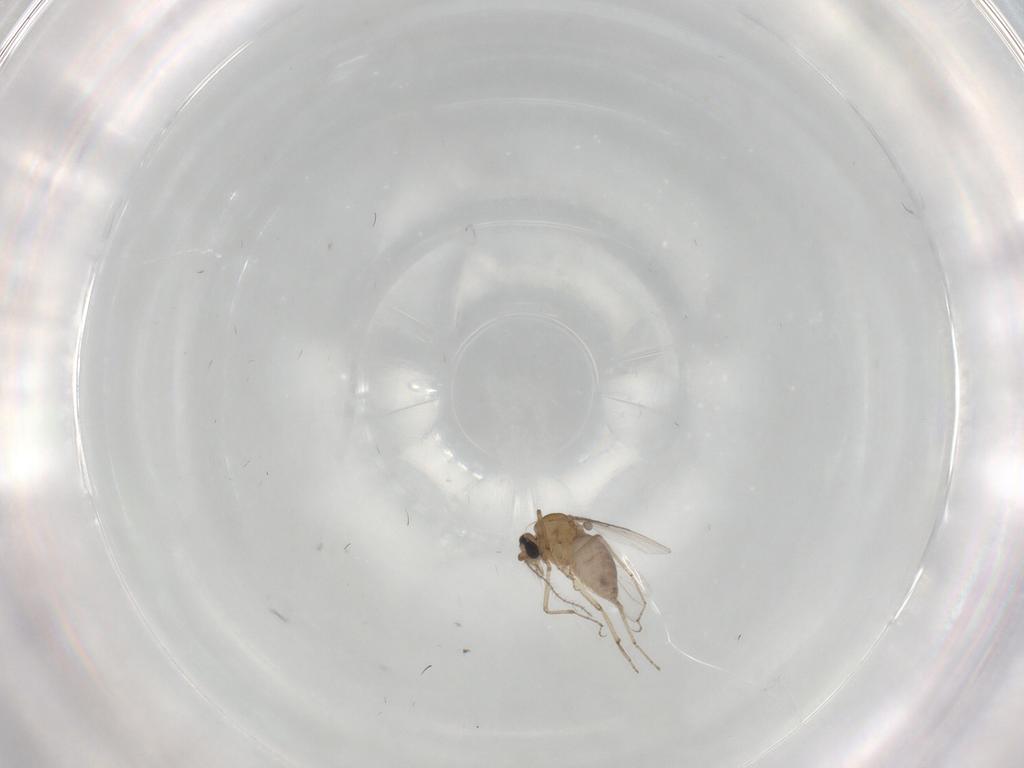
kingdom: Animalia
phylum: Arthropoda
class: Insecta
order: Diptera
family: Ceratopogonidae
